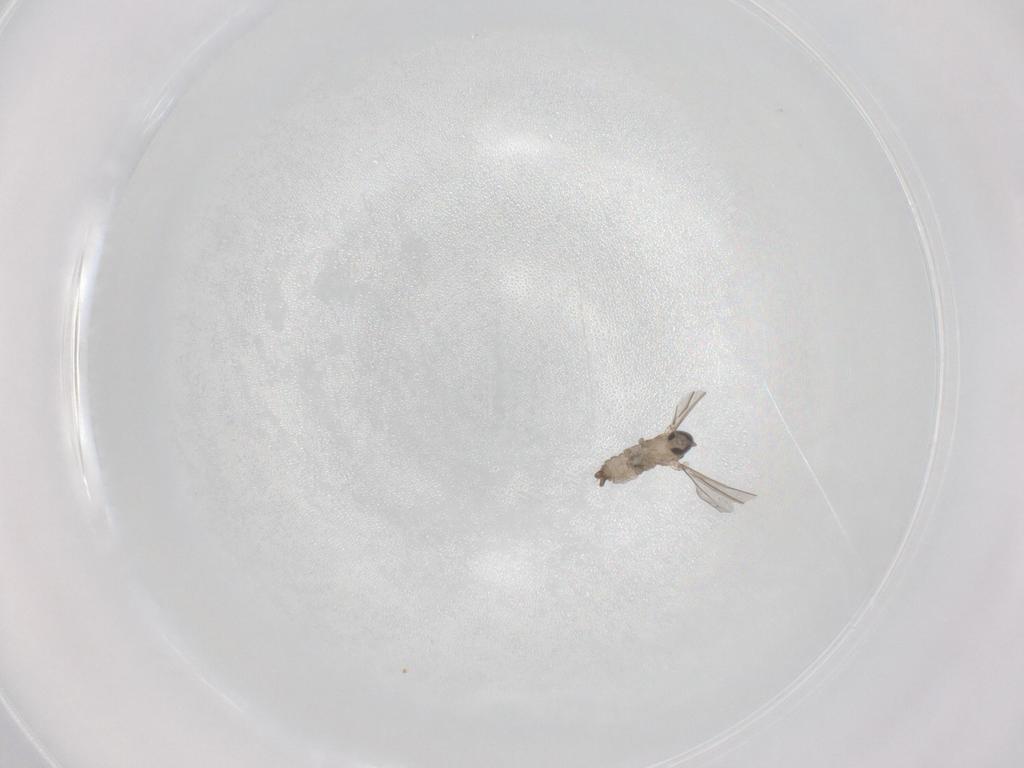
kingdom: Animalia
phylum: Arthropoda
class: Insecta
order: Diptera
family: Cecidomyiidae
